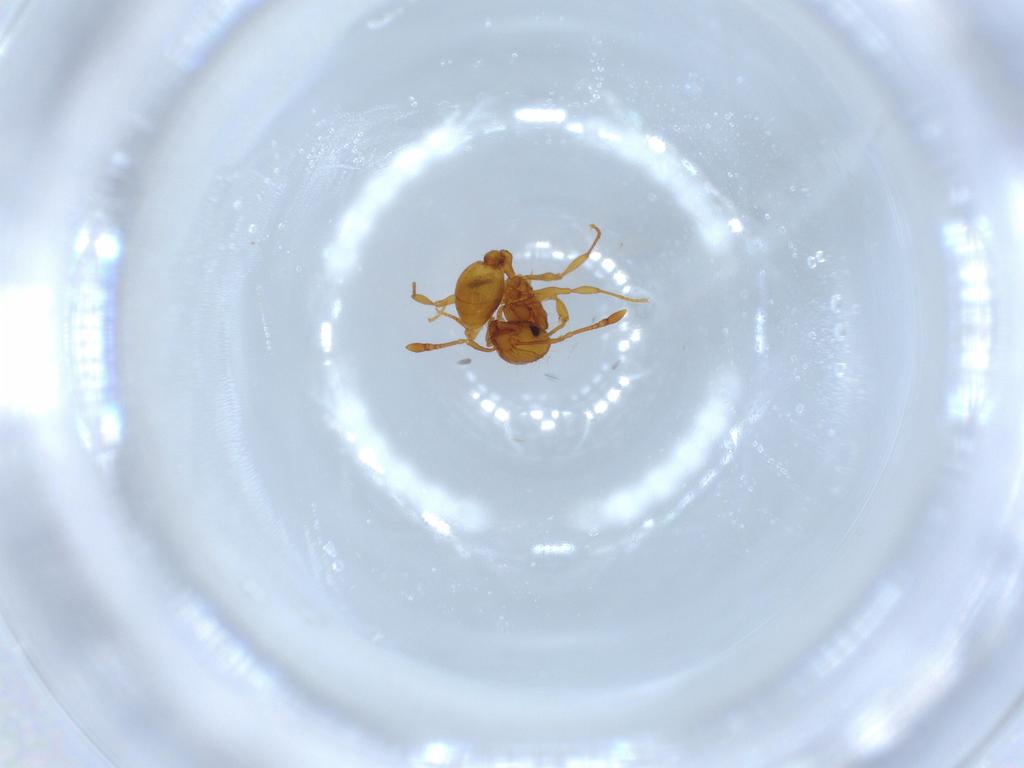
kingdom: Animalia
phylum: Arthropoda
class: Insecta
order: Hymenoptera
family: Formicidae
